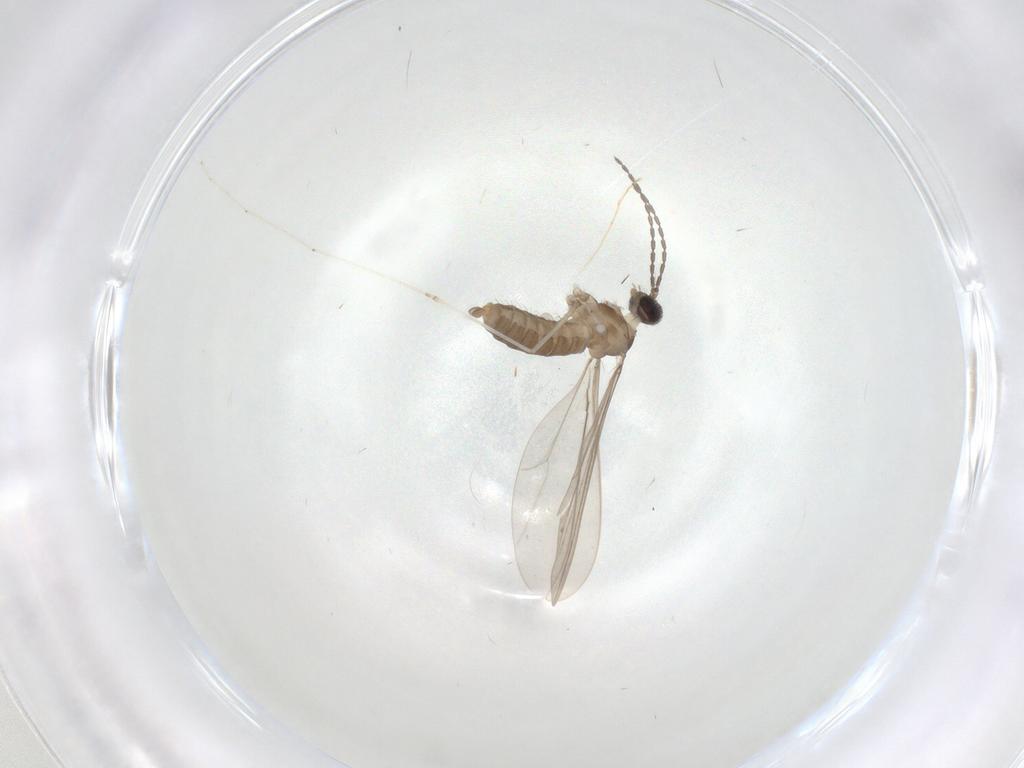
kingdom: Animalia
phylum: Arthropoda
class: Insecta
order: Diptera
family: Cecidomyiidae
